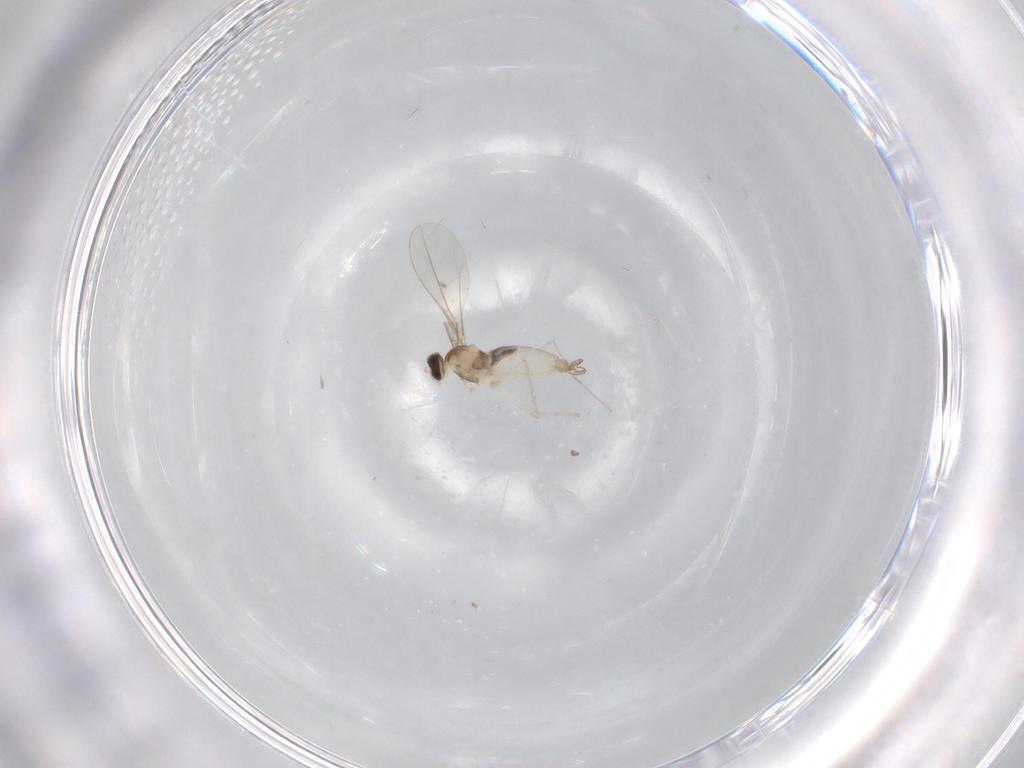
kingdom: Animalia
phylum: Arthropoda
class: Insecta
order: Diptera
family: Cecidomyiidae
